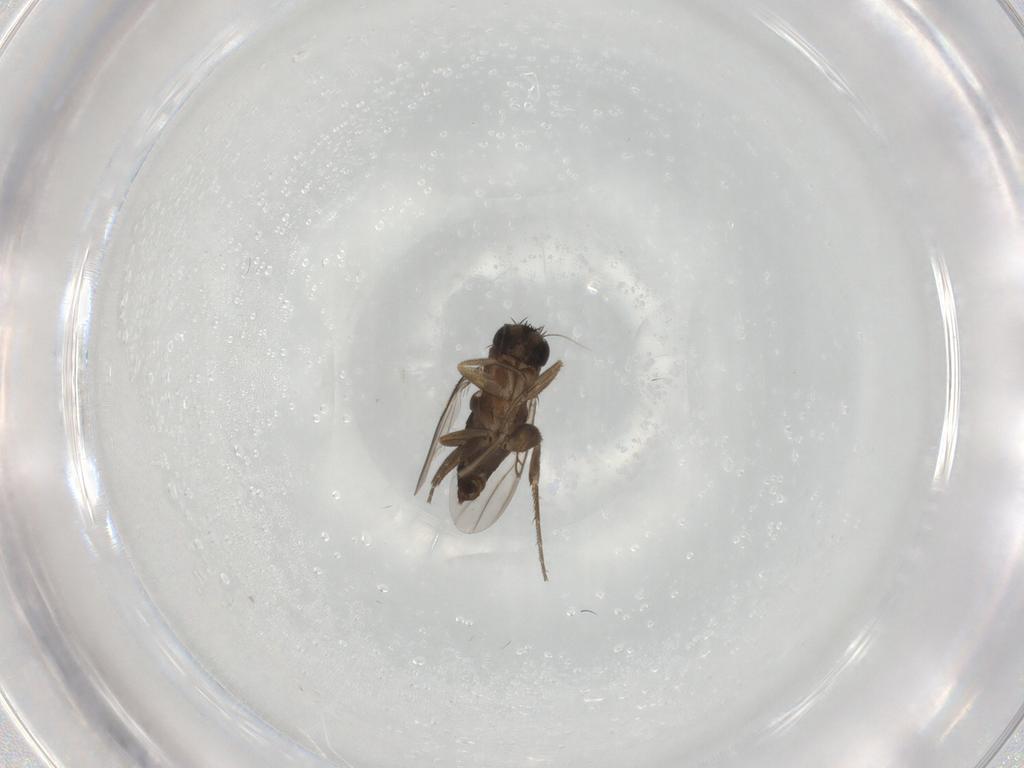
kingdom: Animalia
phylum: Arthropoda
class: Insecta
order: Diptera
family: Phoridae
